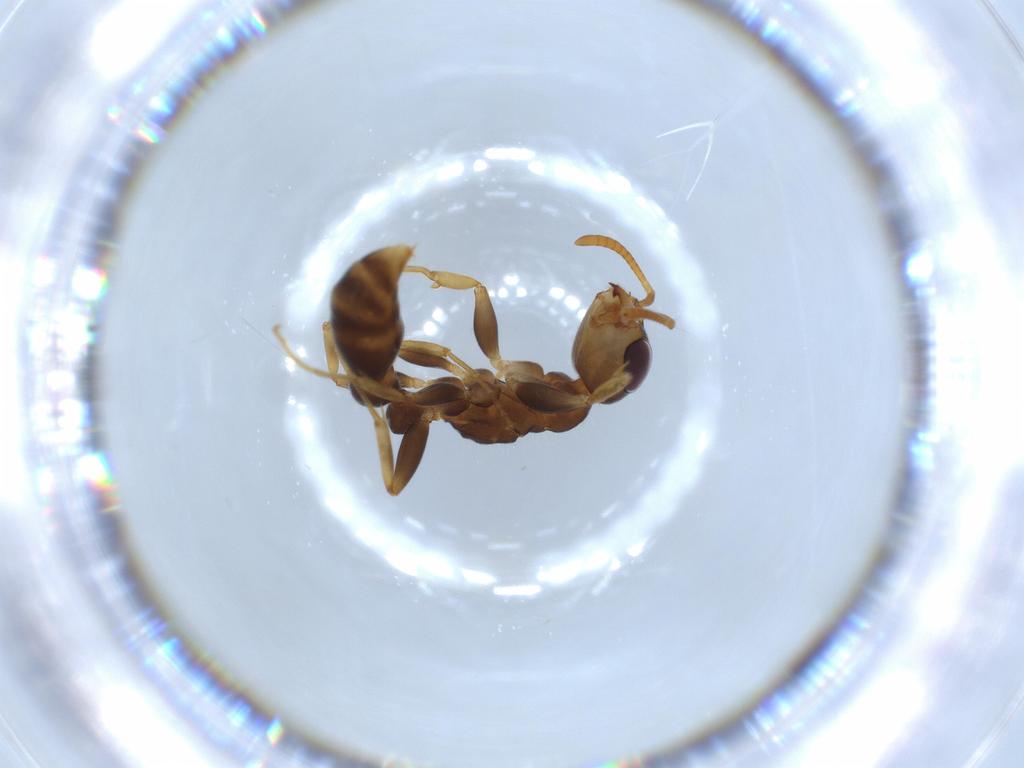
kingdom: Animalia
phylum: Arthropoda
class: Insecta
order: Hymenoptera
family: Formicidae
